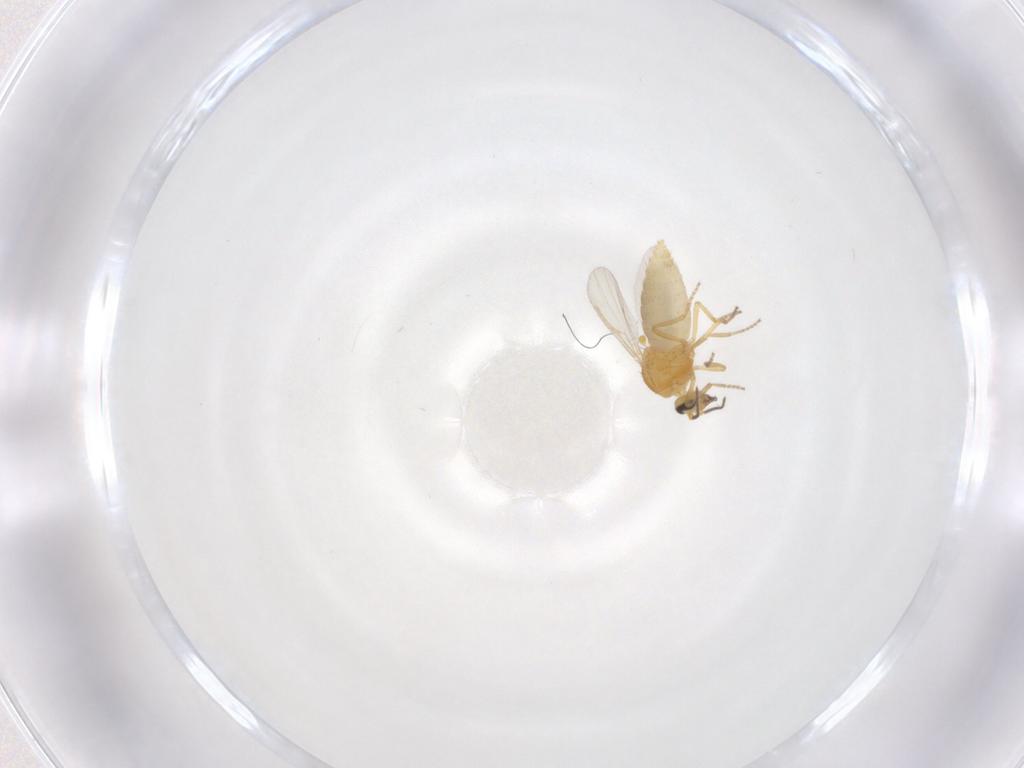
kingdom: Animalia
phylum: Arthropoda
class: Insecta
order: Diptera
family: Ceratopogonidae
